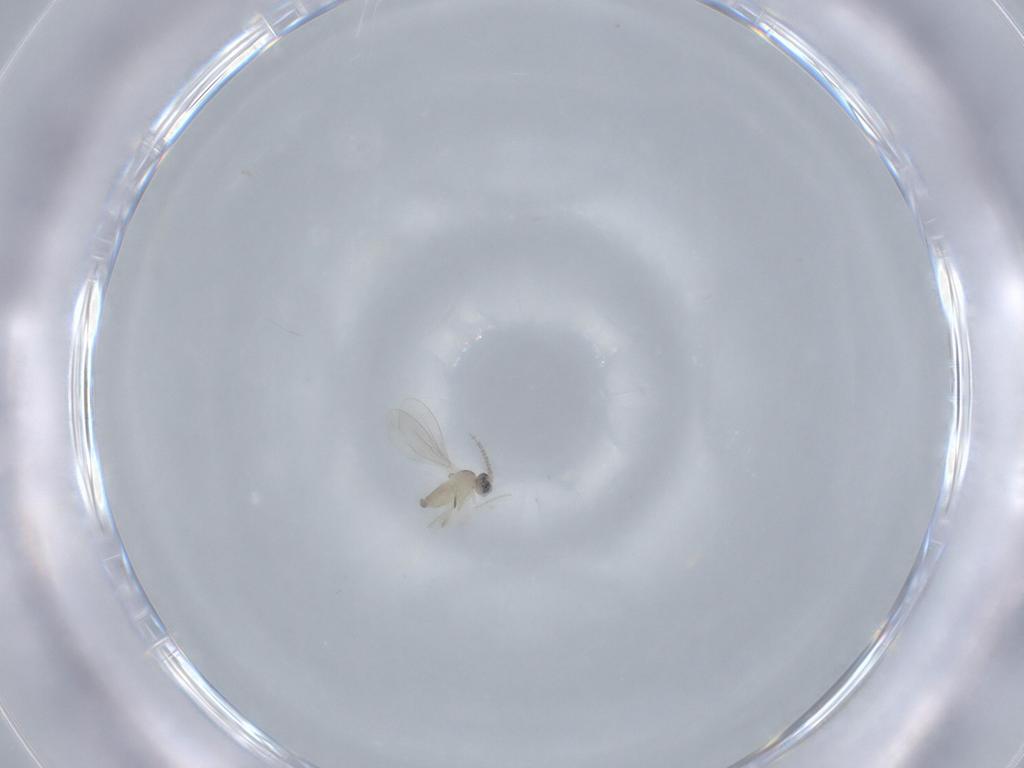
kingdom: Animalia
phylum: Arthropoda
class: Insecta
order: Diptera
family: Cecidomyiidae
